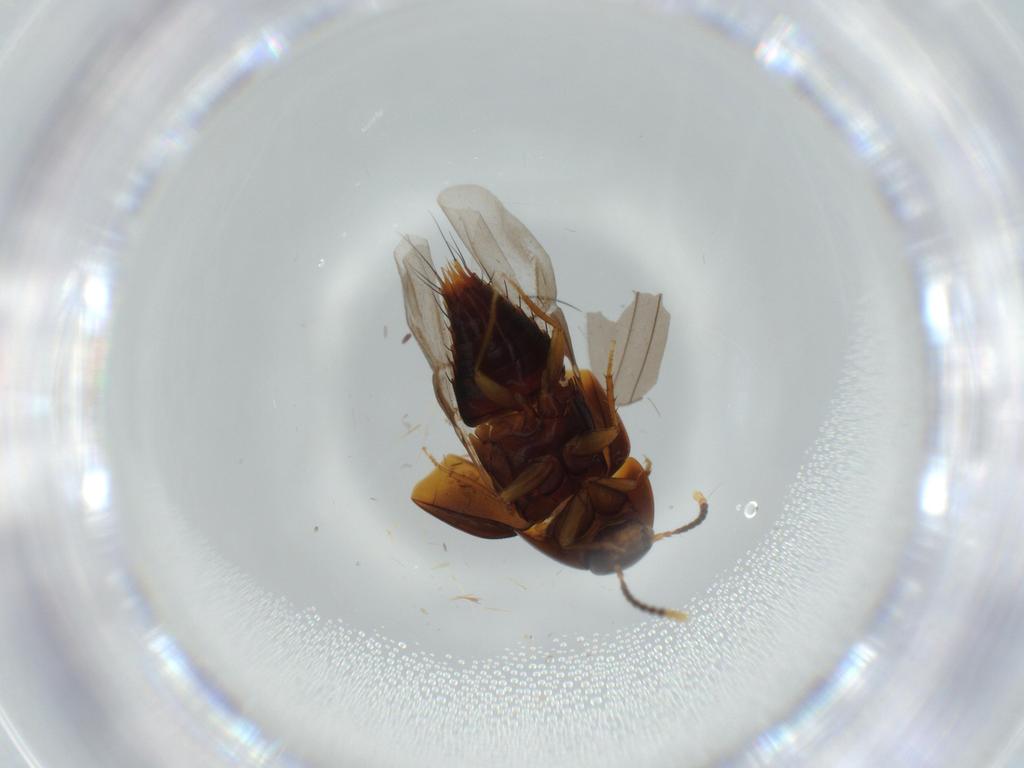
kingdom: Animalia
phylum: Arthropoda
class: Insecta
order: Coleoptera
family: Staphylinidae
